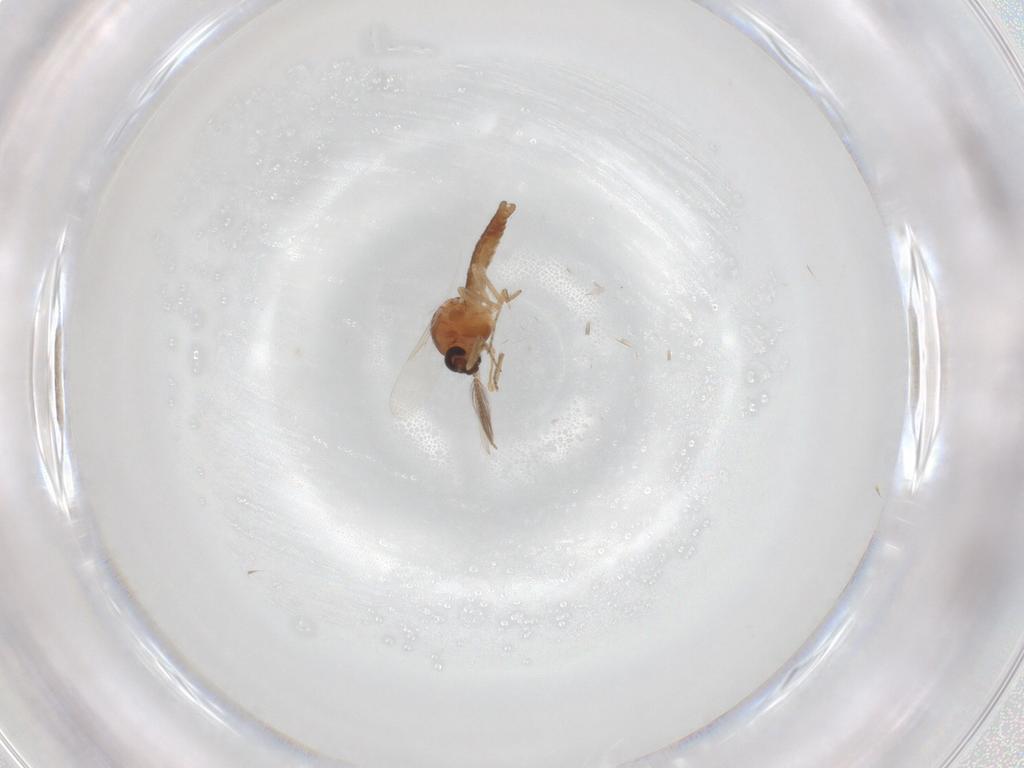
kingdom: Animalia
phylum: Arthropoda
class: Insecta
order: Diptera
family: Ceratopogonidae
